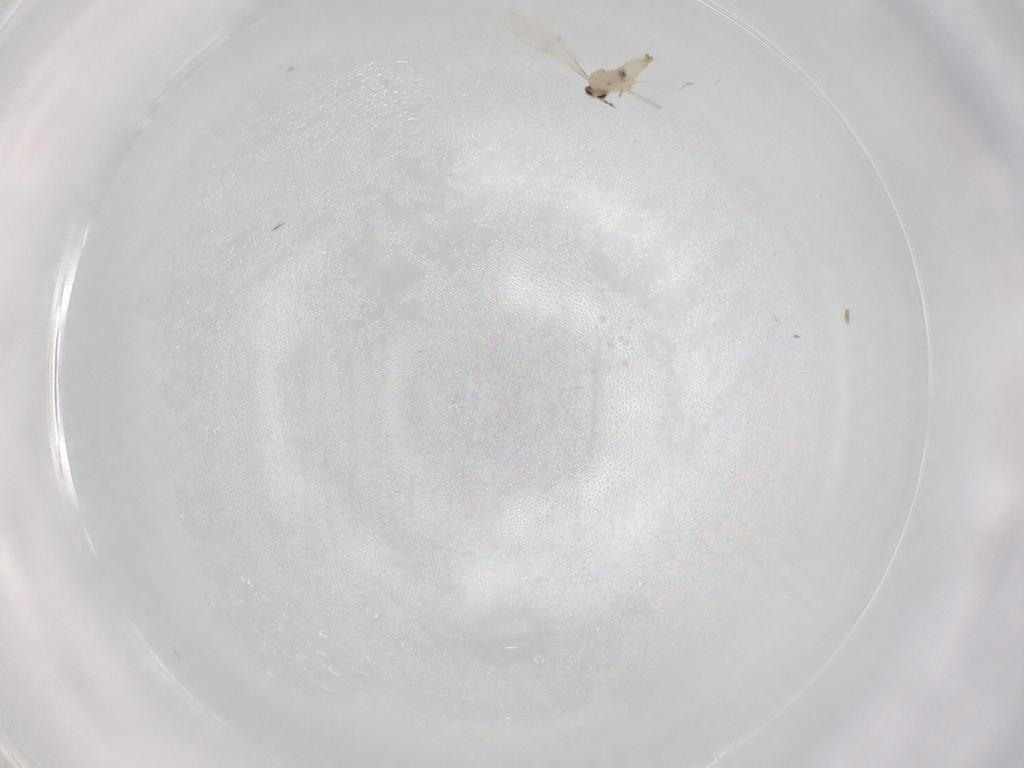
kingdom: Animalia
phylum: Arthropoda
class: Insecta
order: Diptera
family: Cecidomyiidae
